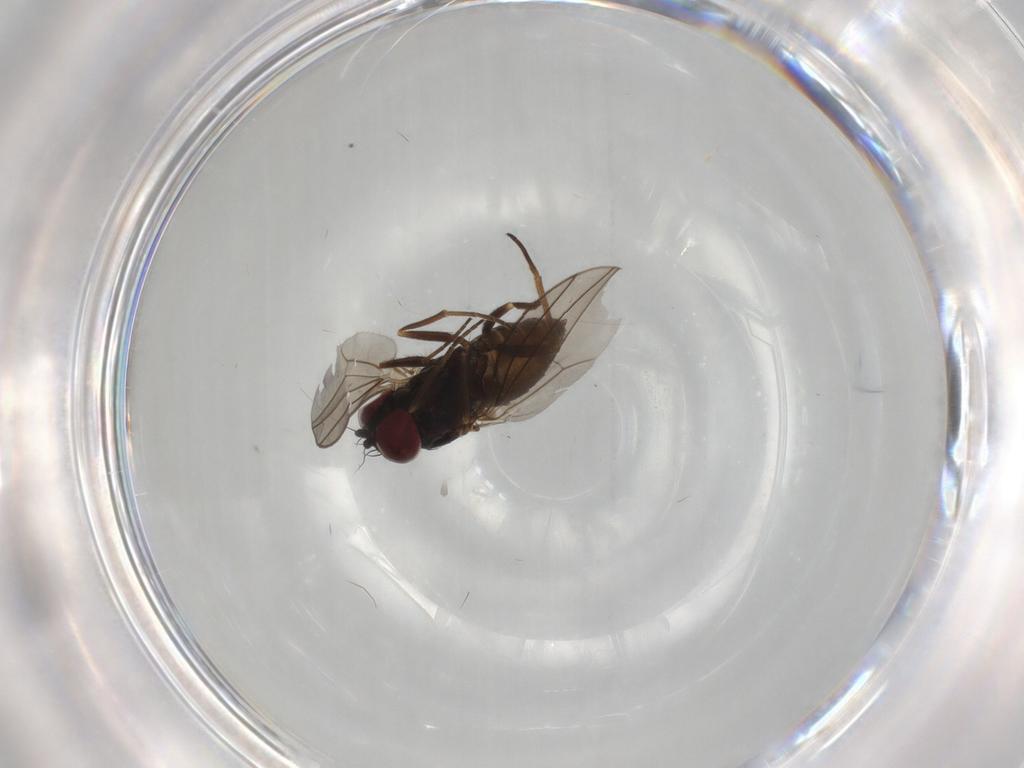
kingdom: Animalia
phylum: Arthropoda
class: Insecta
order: Diptera
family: Dolichopodidae
